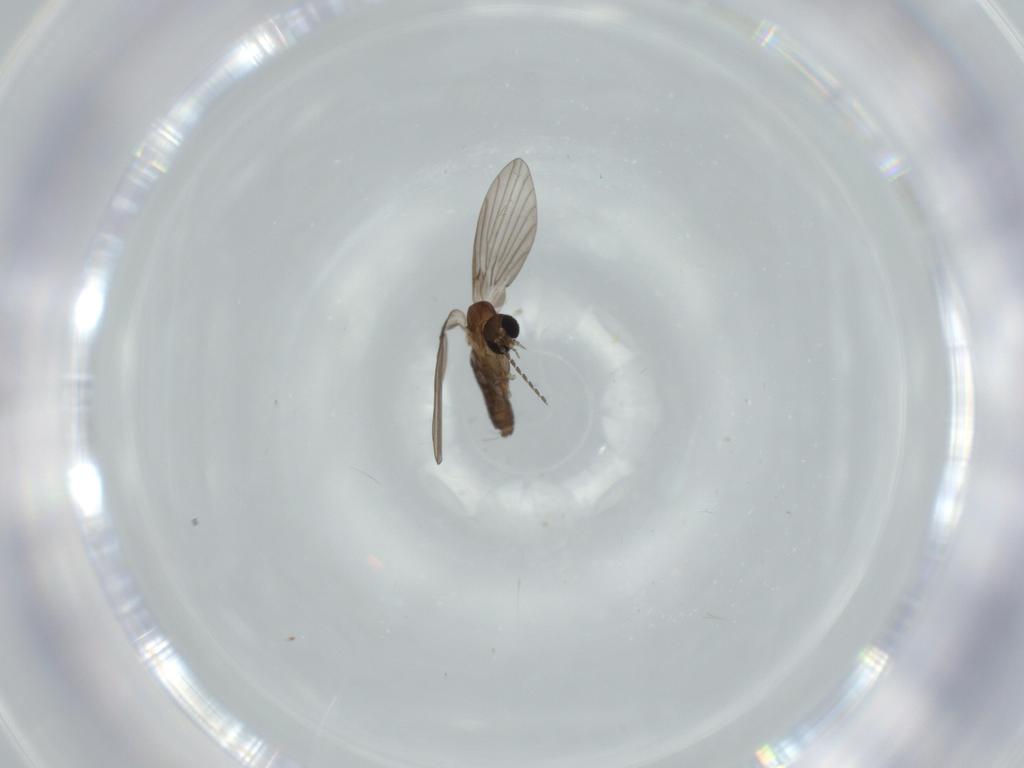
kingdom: Animalia
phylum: Arthropoda
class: Insecta
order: Diptera
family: Psychodidae
